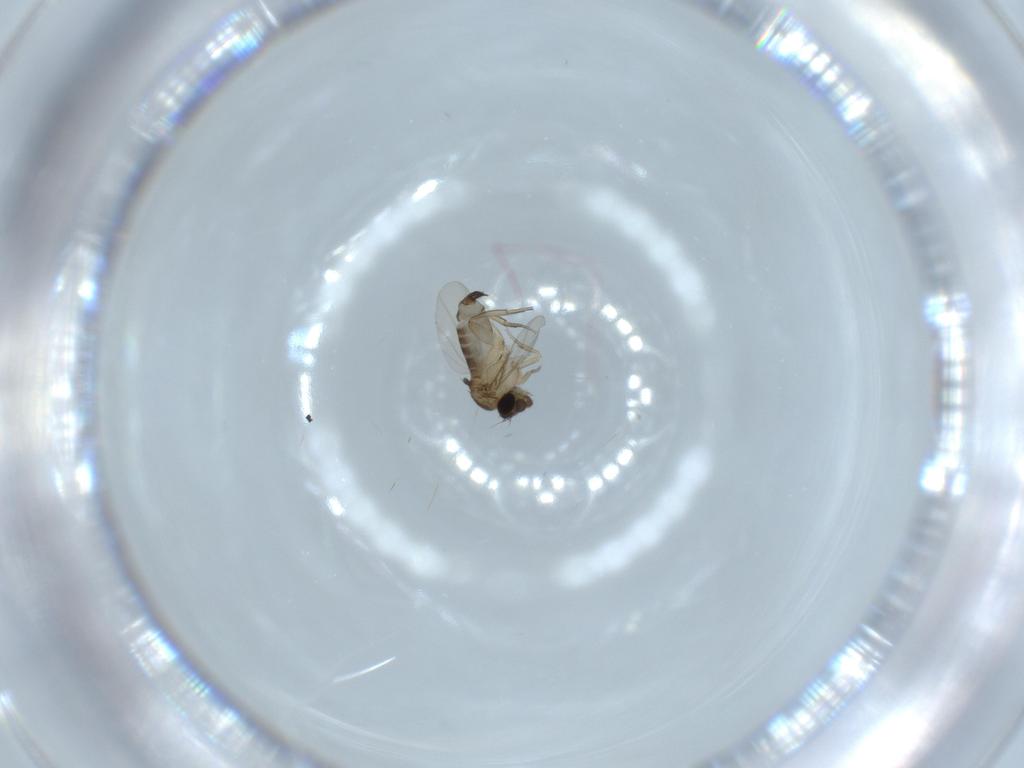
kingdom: Animalia
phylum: Arthropoda
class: Insecta
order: Diptera
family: Phoridae
